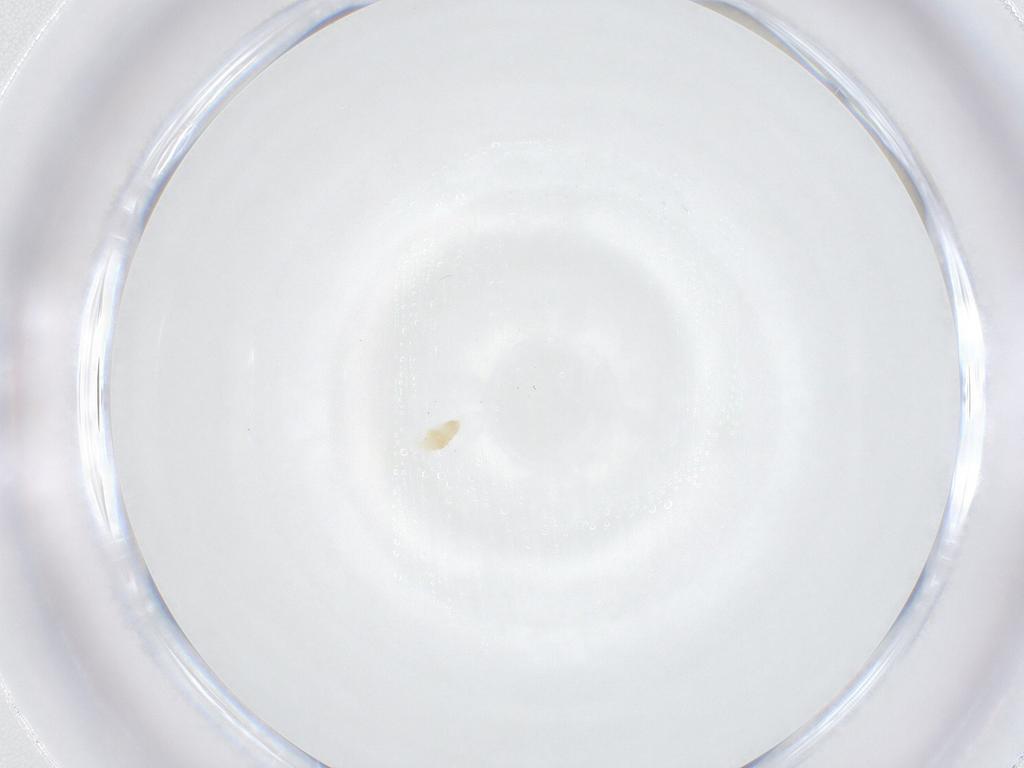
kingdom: Animalia
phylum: Arthropoda
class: Arachnida
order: Trombidiformes
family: Eupodidae
